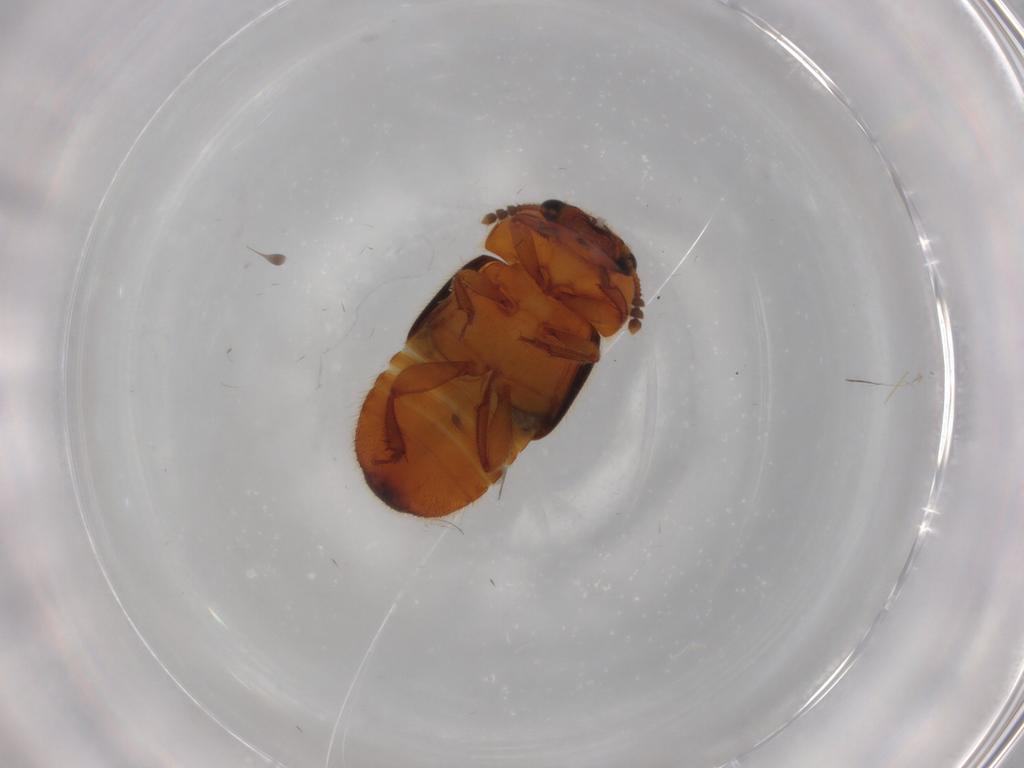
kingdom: Animalia
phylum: Arthropoda
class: Insecta
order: Coleoptera
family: Nitidulidae
